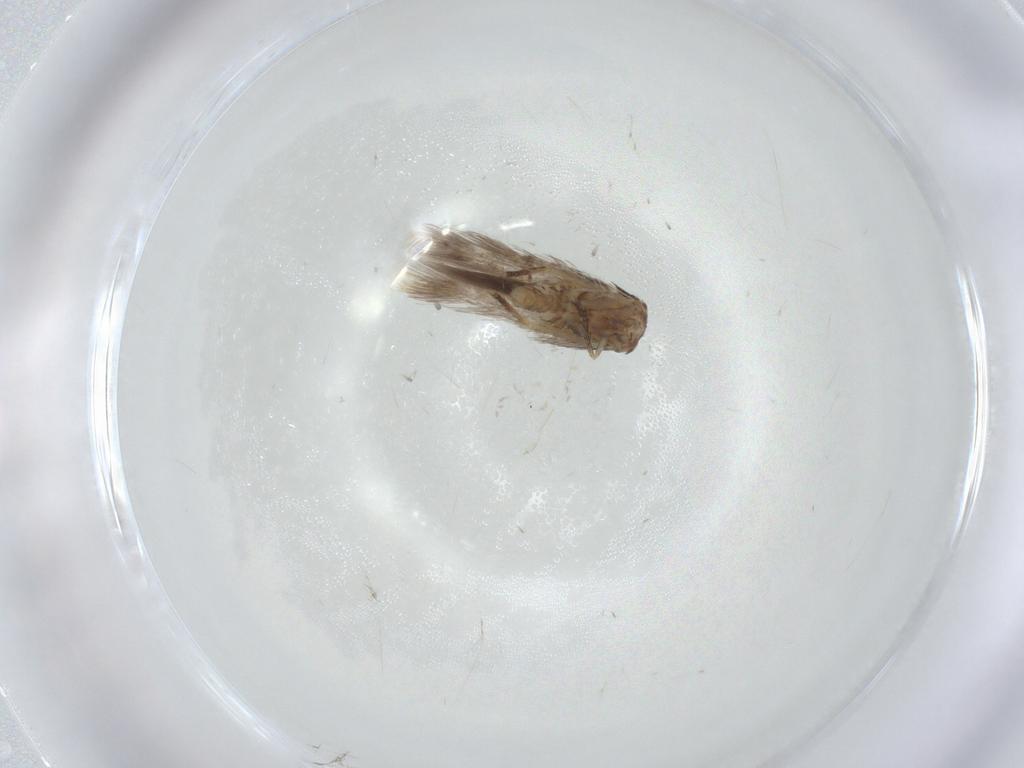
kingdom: Animalia
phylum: Arthropoda
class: Insecta
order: Lepidoptera
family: Nepticulidae
